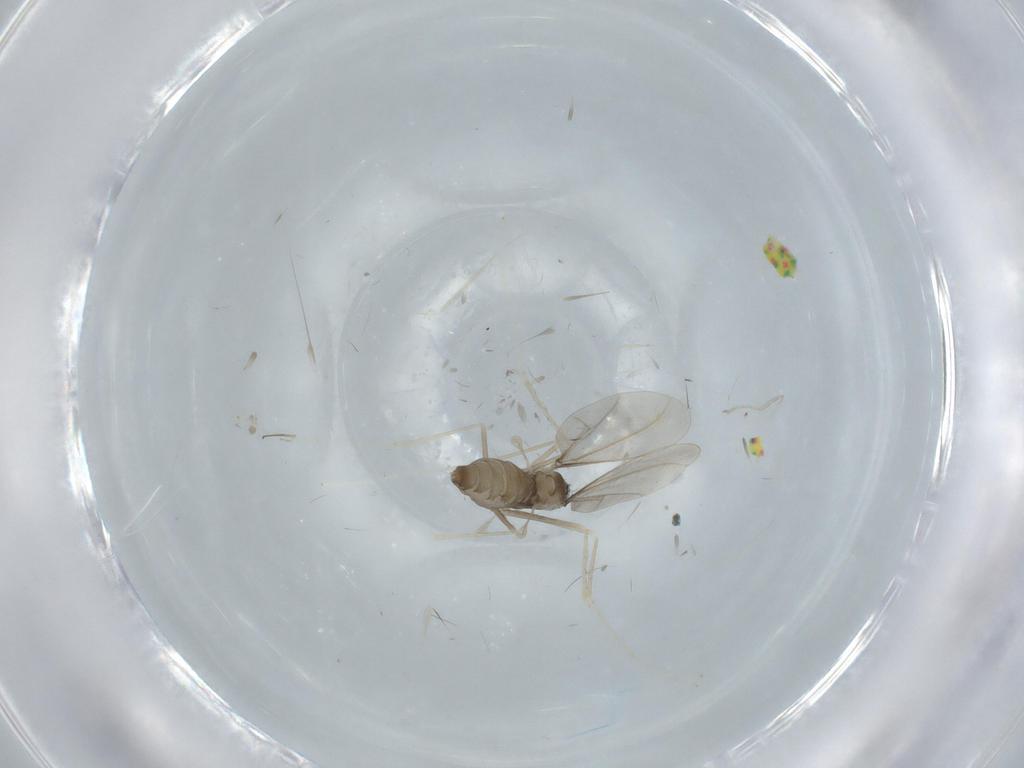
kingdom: Animalia
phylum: Arthropoda
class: Insecta
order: Diptera
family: Cecidomyiidae
